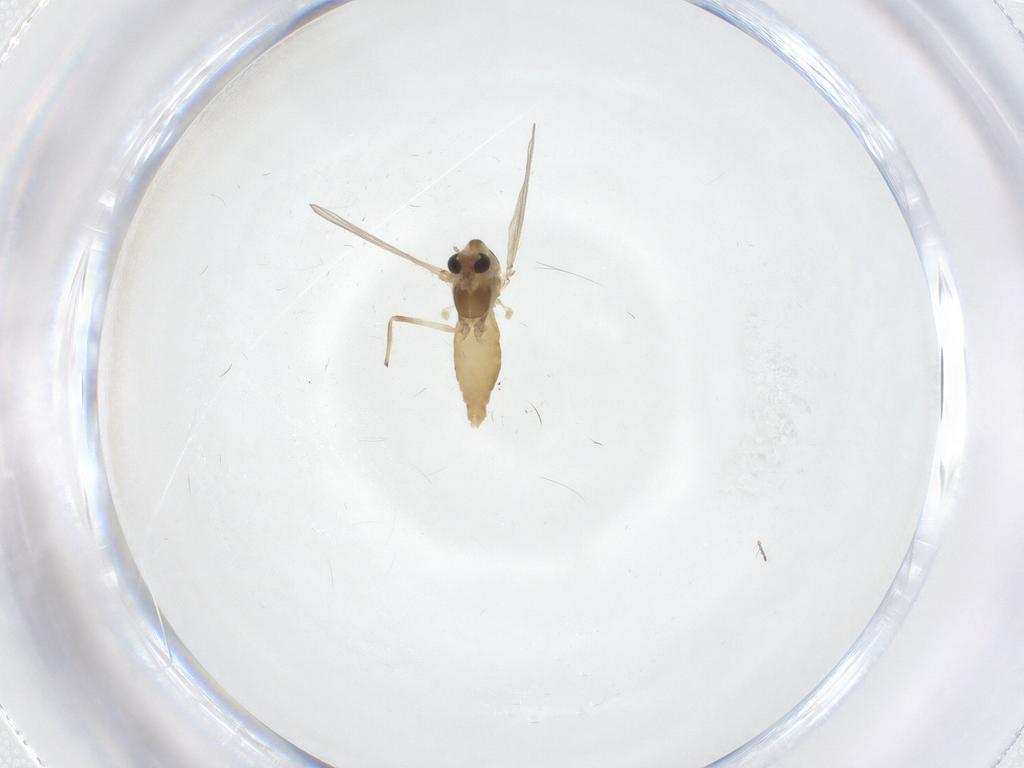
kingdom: Animalia
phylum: Arthropoda
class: Insecta
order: Diptera
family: Chironomidae
